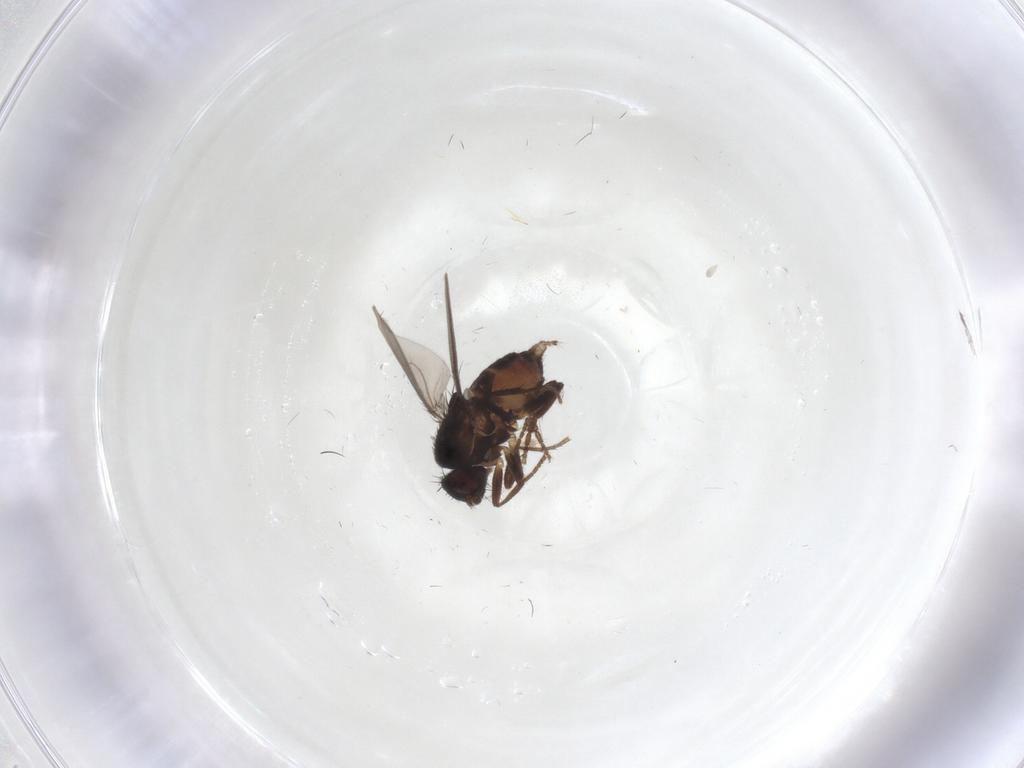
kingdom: Animalia
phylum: Arthropoda
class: Insecta
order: Diptera
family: Sphaeroceridae
